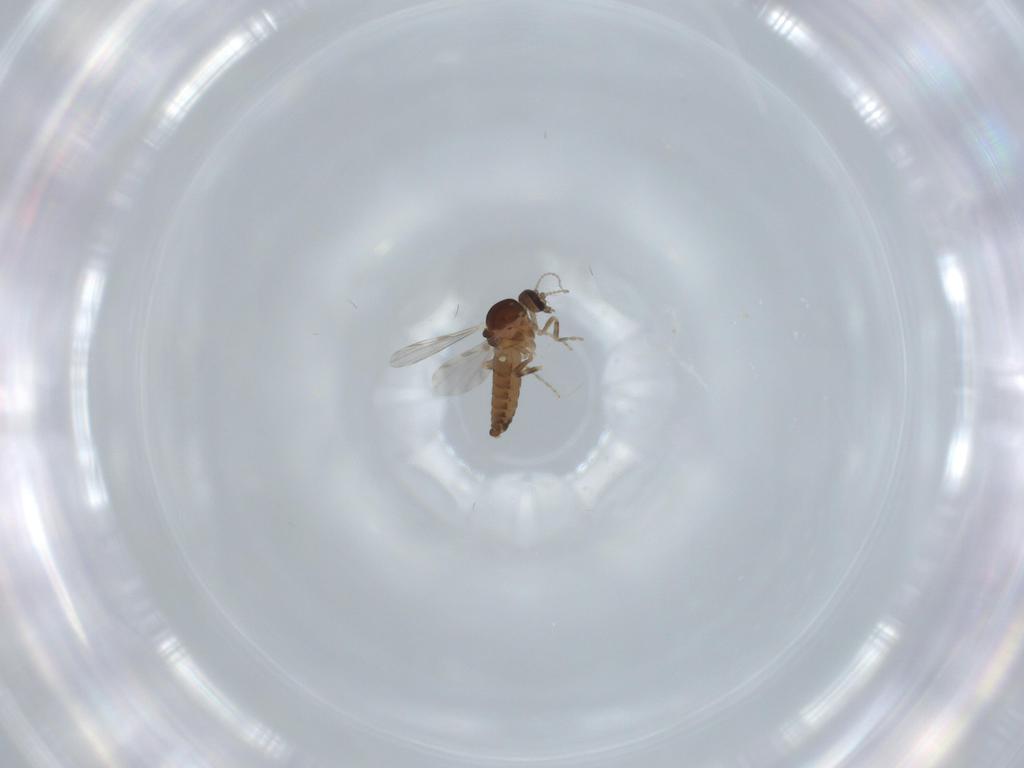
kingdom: Animalia
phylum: Arthropoda
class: Insecta
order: Diptera
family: Ceratopogonidae
